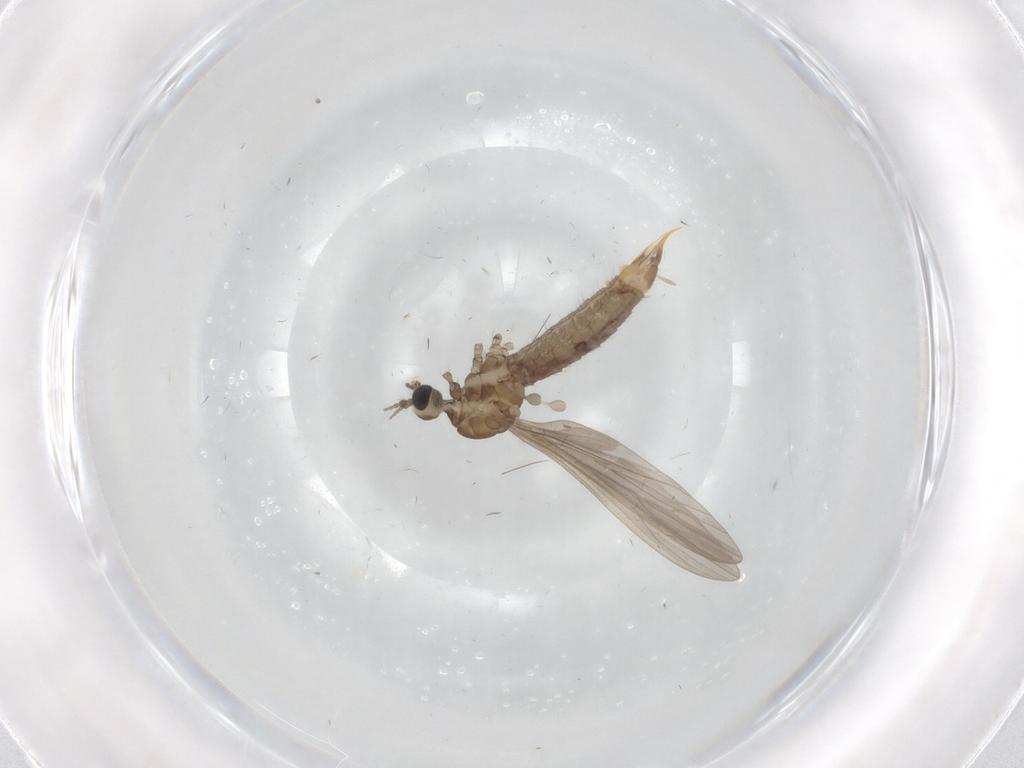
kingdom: Animalia
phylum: Arthropoda
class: Insecta
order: Diptera
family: Limoniidae
